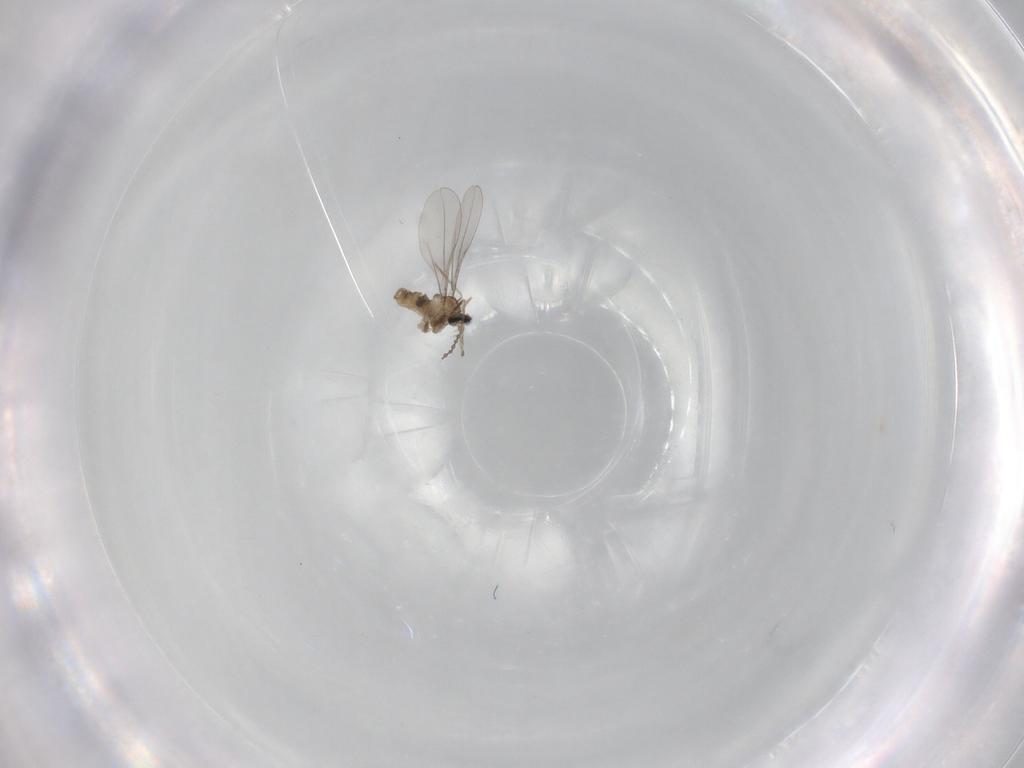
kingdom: Animalia
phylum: Arthropoda
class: Insecta
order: Diptera
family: Cecidomyiidae
